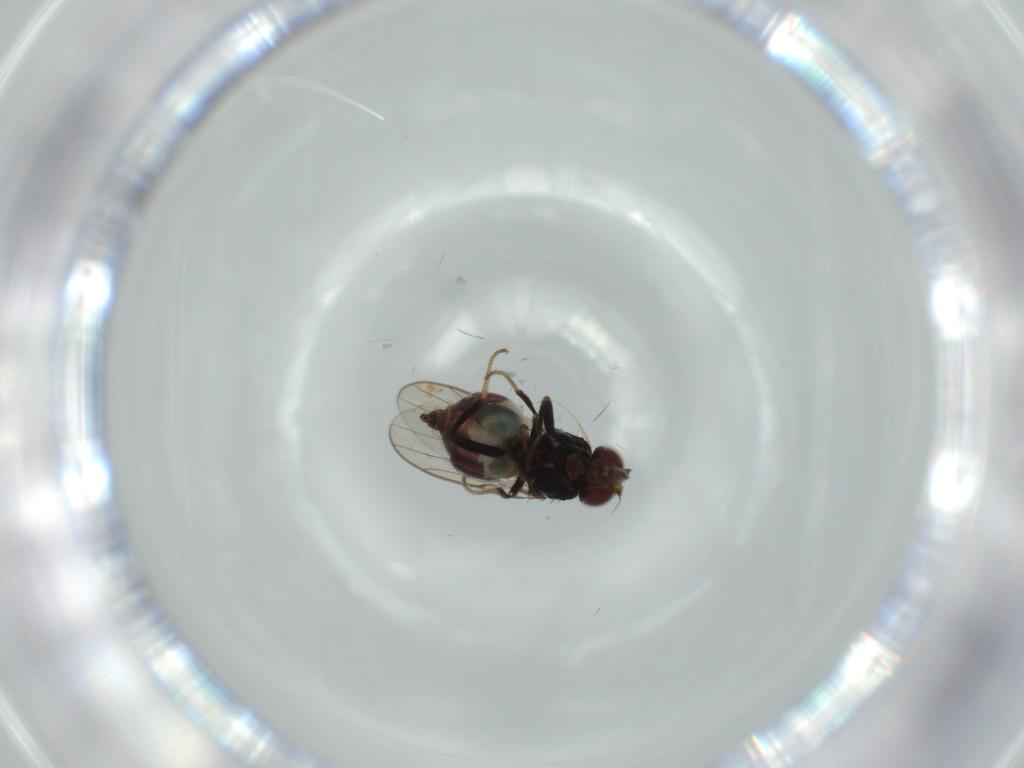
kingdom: Animalia
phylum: Arthropoda
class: Insecta
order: Diptera
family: Chloropidae
